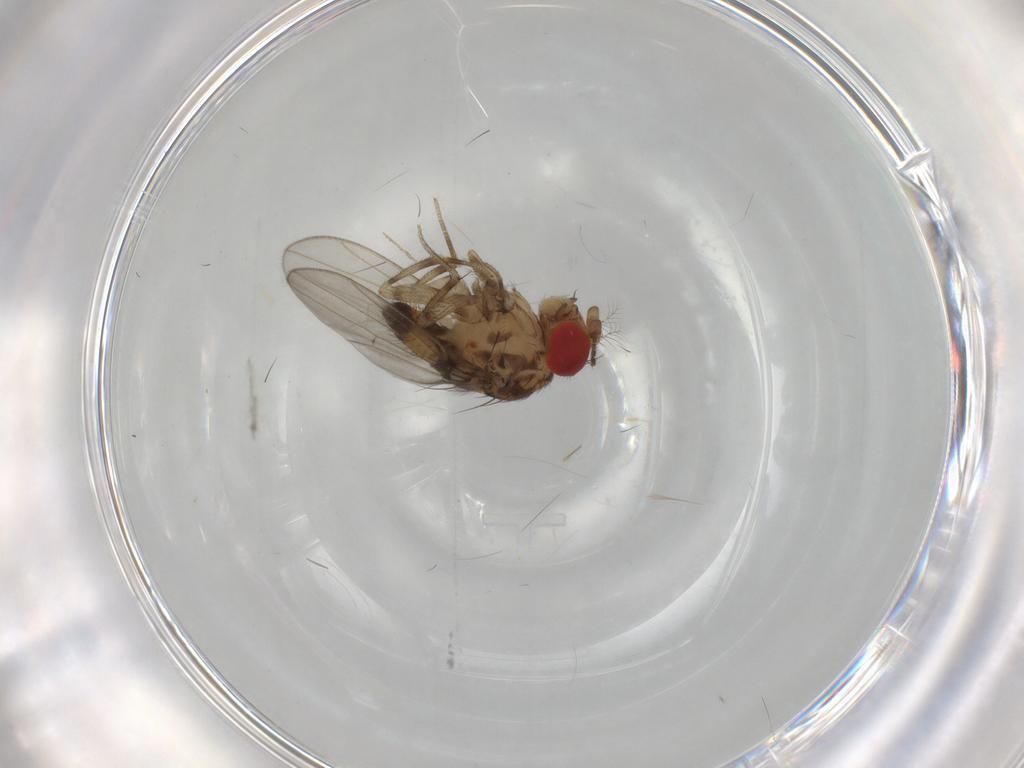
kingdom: Animalia
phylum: Arthropoda
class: Insecta
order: Diptera
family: Drosophilidae
